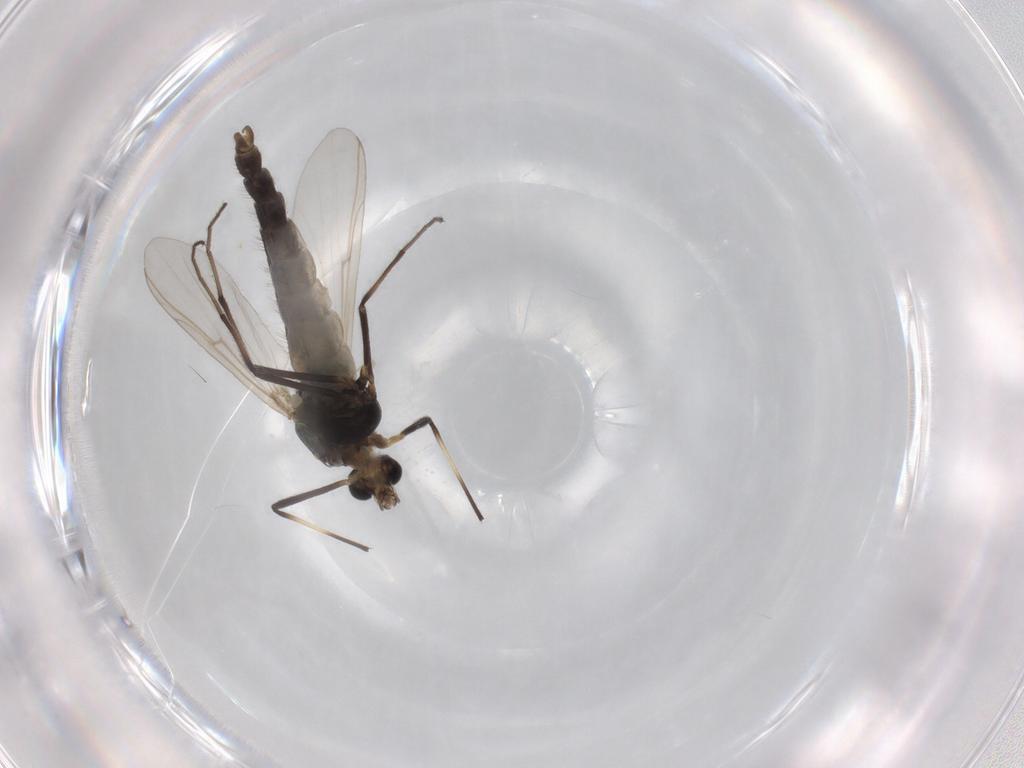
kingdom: Animalia
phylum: Arthropoda
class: Insecta
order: Diptera
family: Chironomidae
